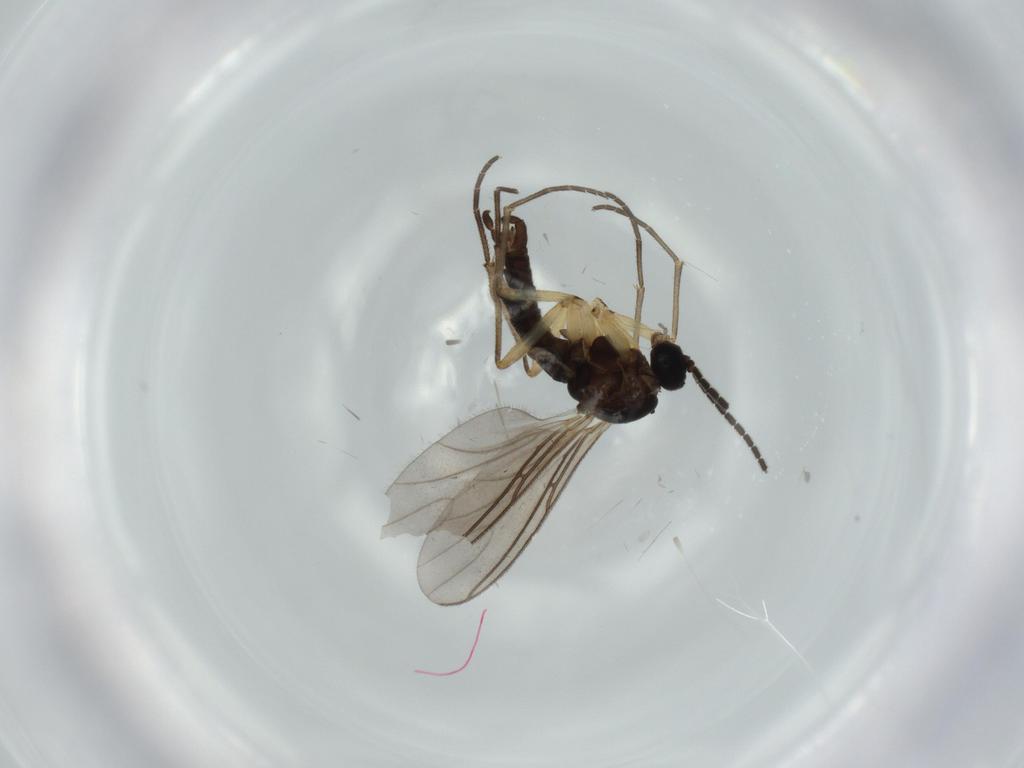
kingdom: Animalia
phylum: Arthropoda
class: Insecta
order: Diptera
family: Sciaridae
